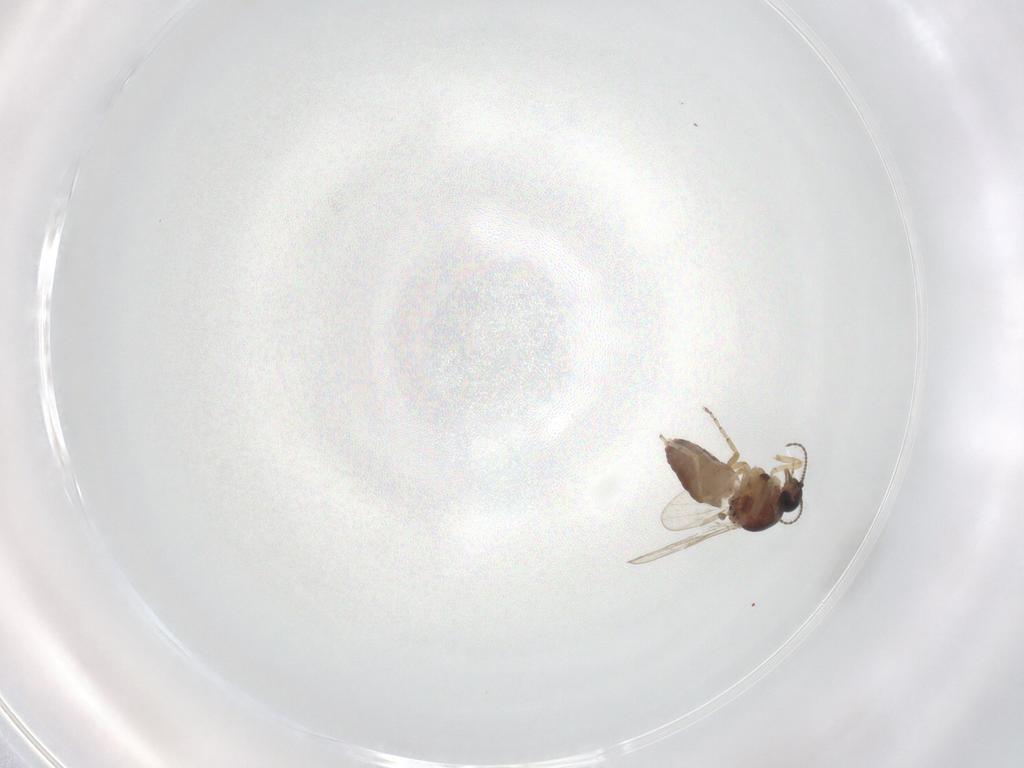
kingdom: Animalia
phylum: Arthropoda
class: Insecta
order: Diptera
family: Ceratopogonidae
